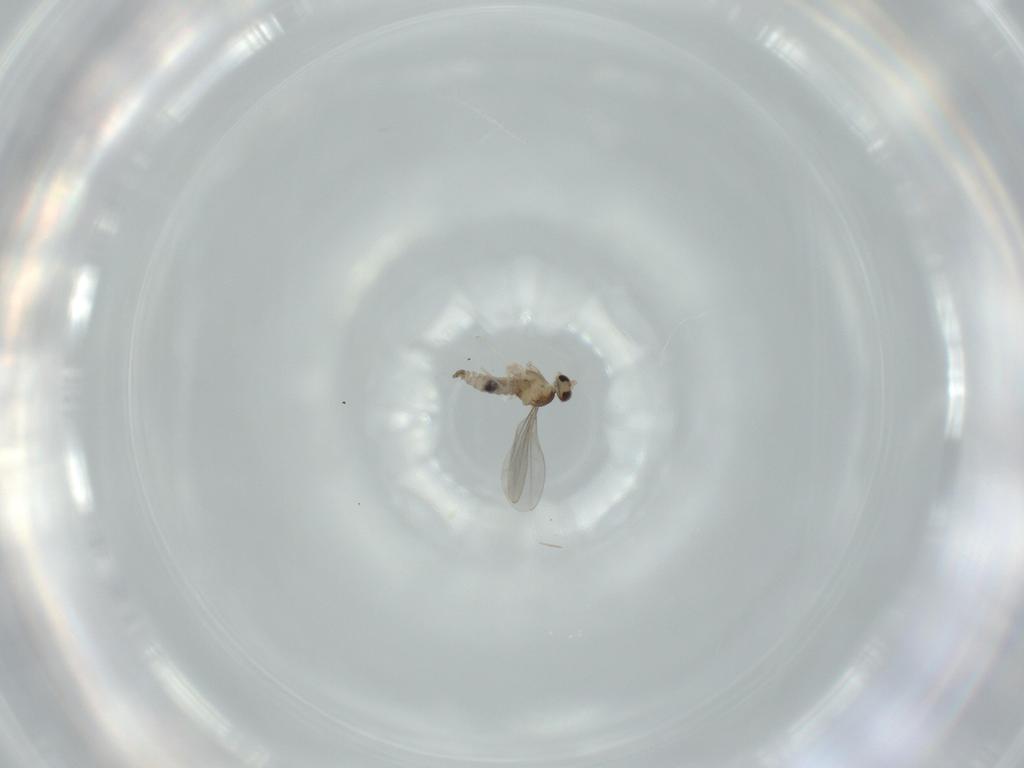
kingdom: Animalia
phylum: Arthropoda
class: Insecta
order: Diptera
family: Cecidomyiidae
